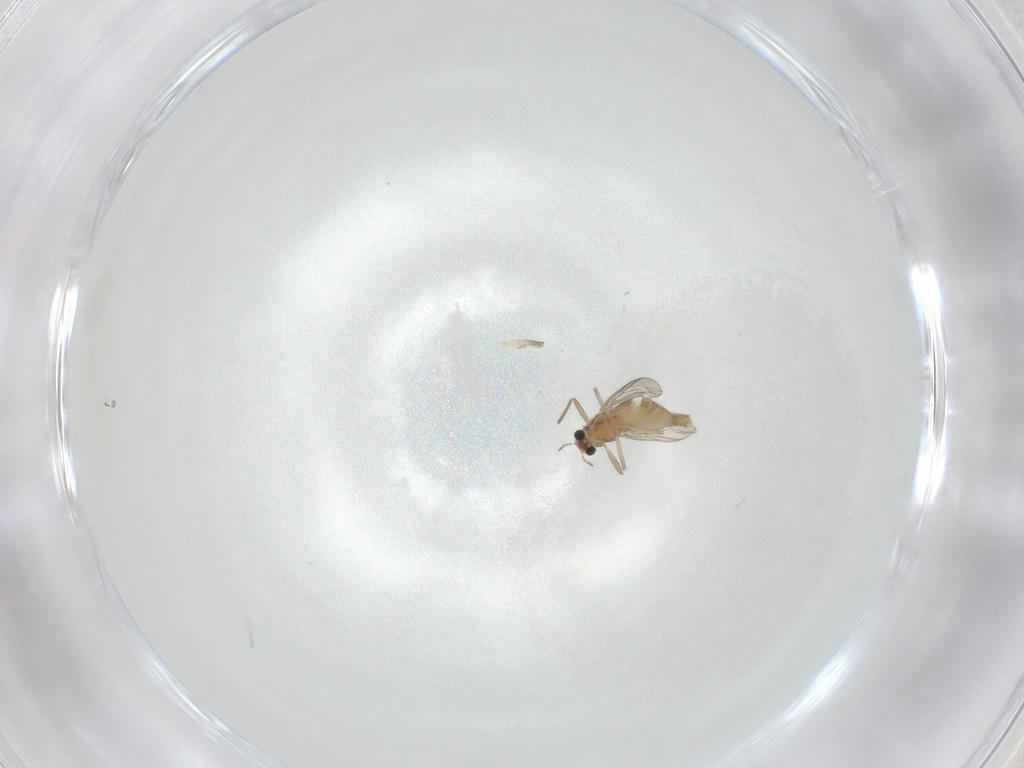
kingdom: Animalia
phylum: Arthropoda
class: Insecta
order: Diptera
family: Chironomidae
